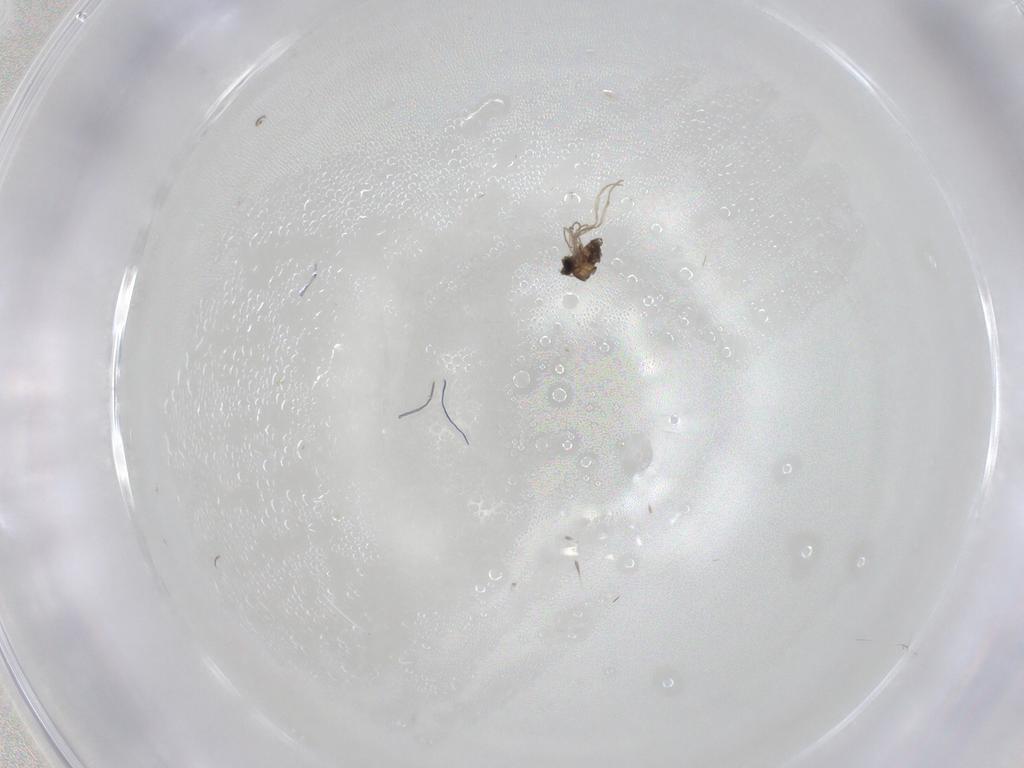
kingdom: Animalia
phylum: Arthropoda
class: Insecta
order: Diptera
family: Cecidomyiidae
